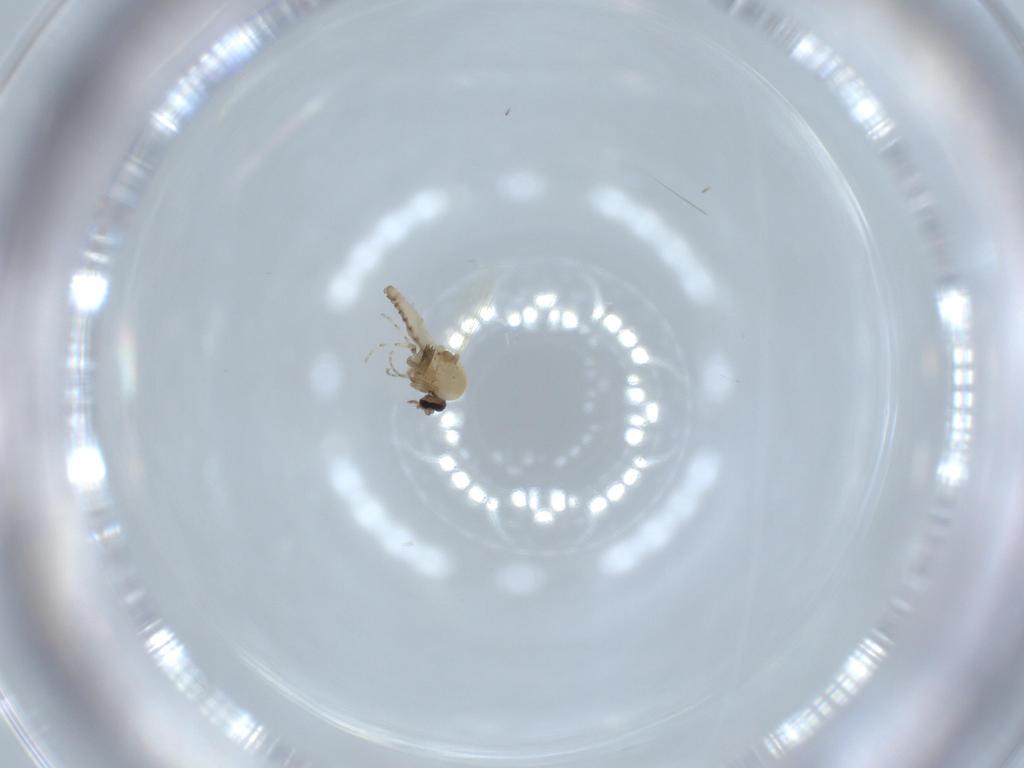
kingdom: Animalia
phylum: Arthropoda
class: Insecta
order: Diptera
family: Ceratopogonidae
